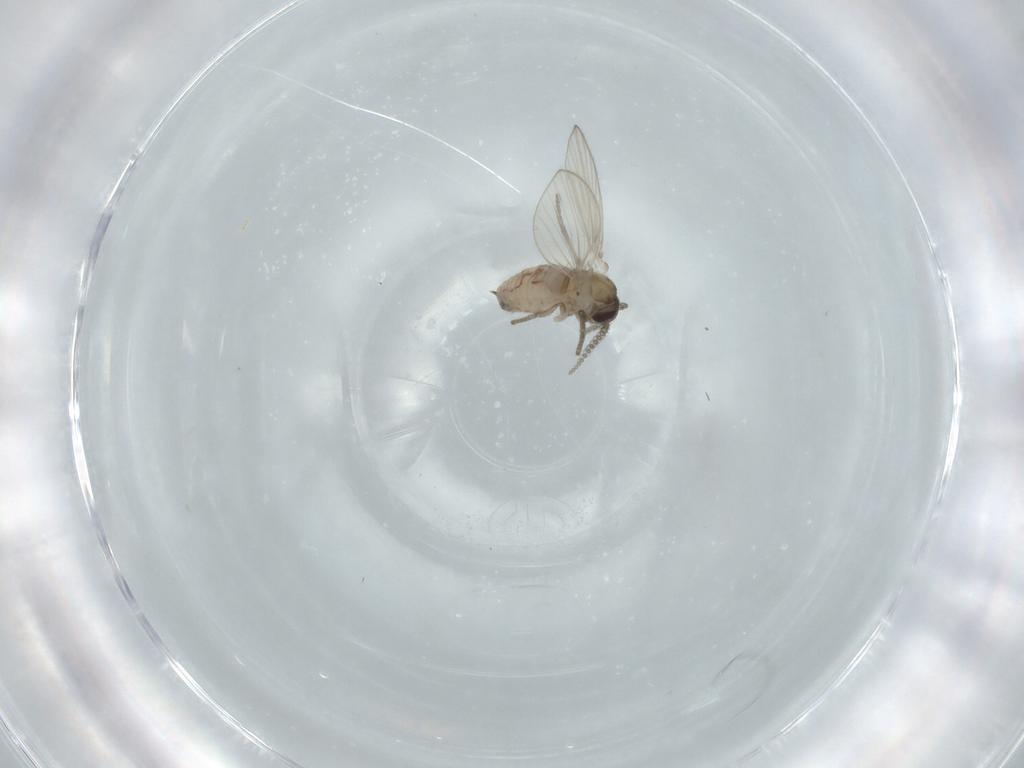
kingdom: Animalia
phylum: Arthropoda
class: Insecta
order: Diptera
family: Psychodidae
